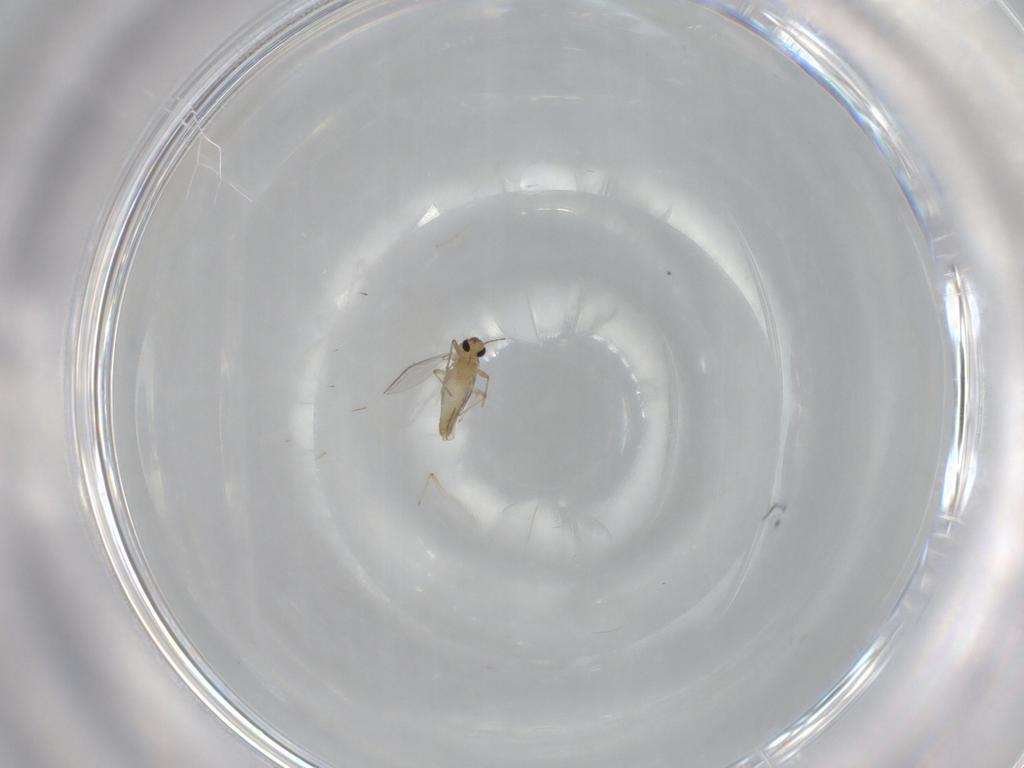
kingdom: Animalia
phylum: Arthropoda
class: Insecta
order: Diptera
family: Chironomidae
